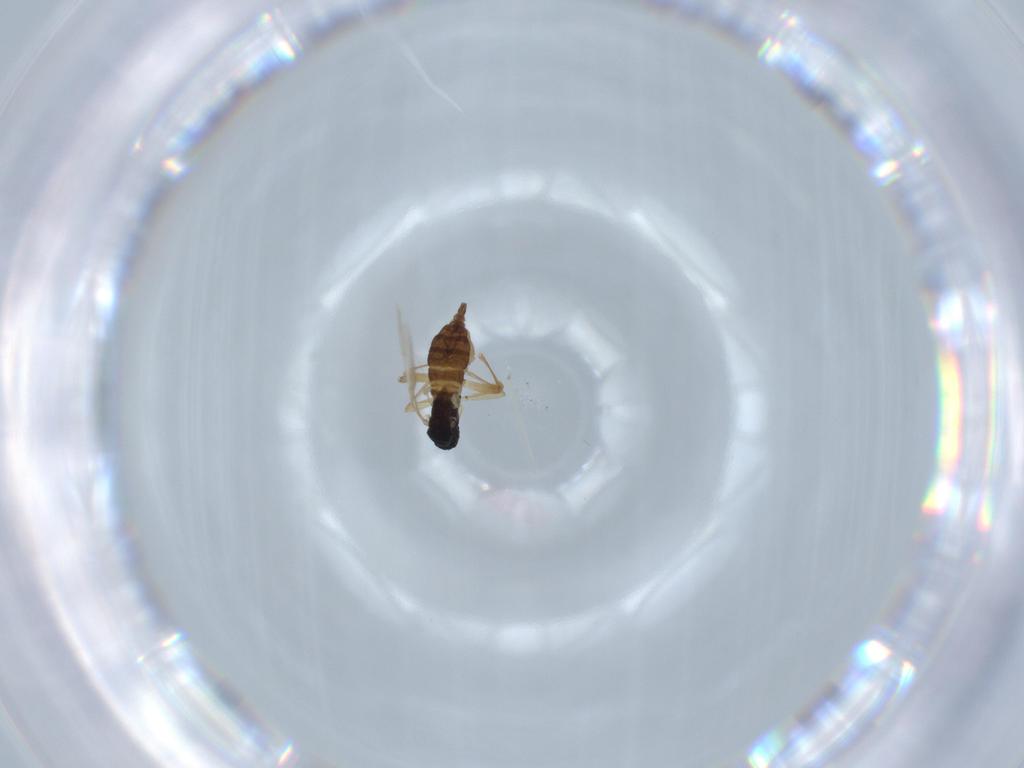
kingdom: Animalia
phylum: Arthropoda
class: Insecta
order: Diptera
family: Sciaridae
